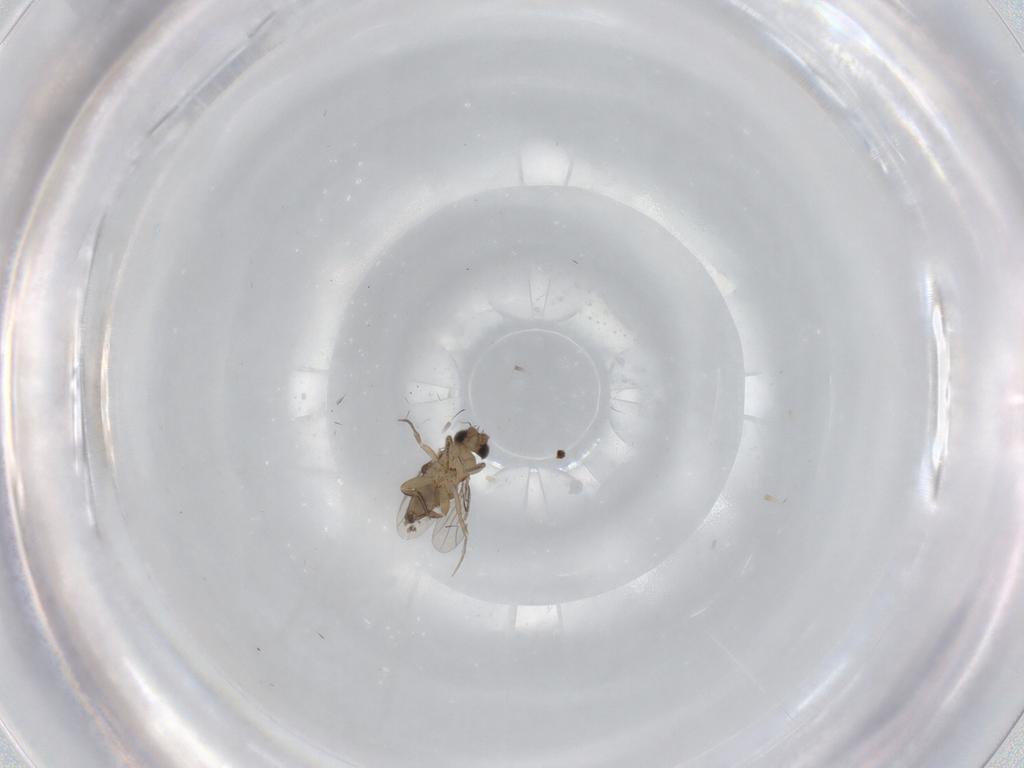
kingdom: Animalia
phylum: Arthropoda
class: Insecta
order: Diptera
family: Phoridae
